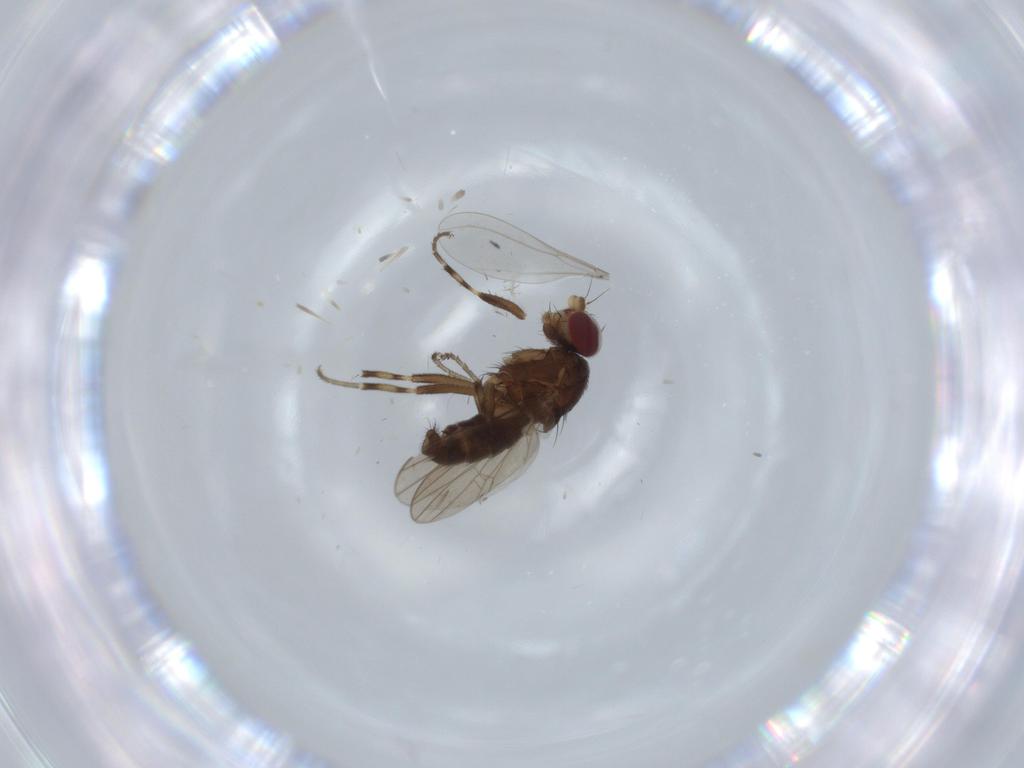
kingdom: Animalia
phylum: Arthropoda
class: Insecta
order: Diptera
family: Heleomyzidae
